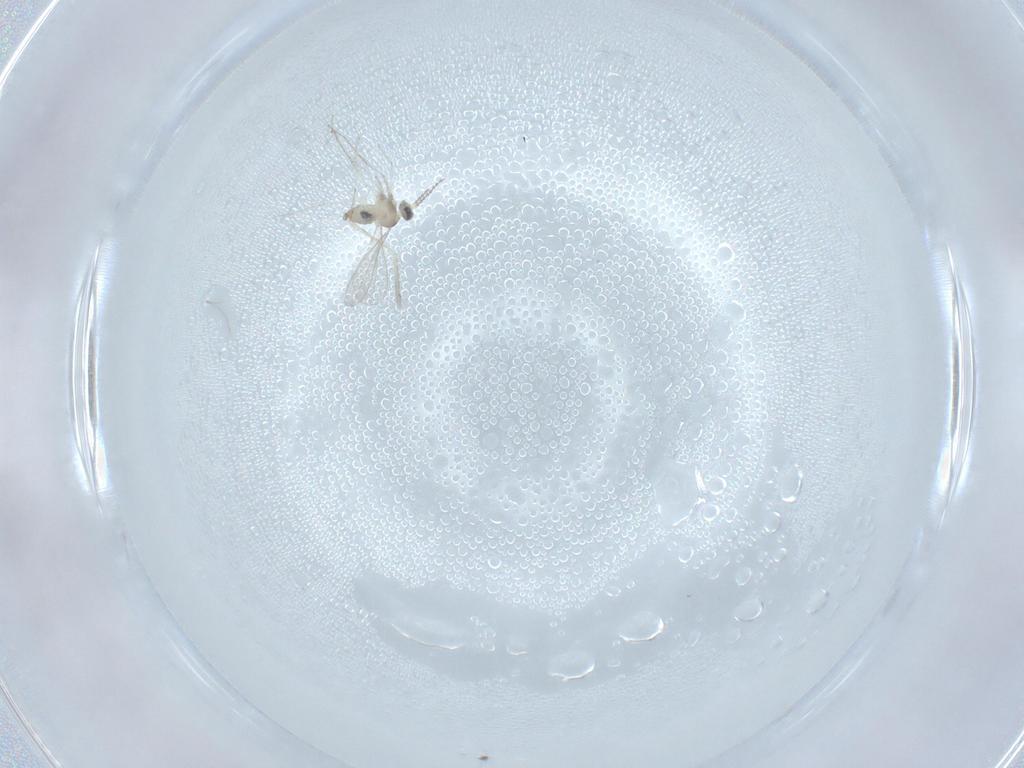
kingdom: Animalia
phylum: Arthropoda
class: Insecta
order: Diptera
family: Cecidomyiidae
